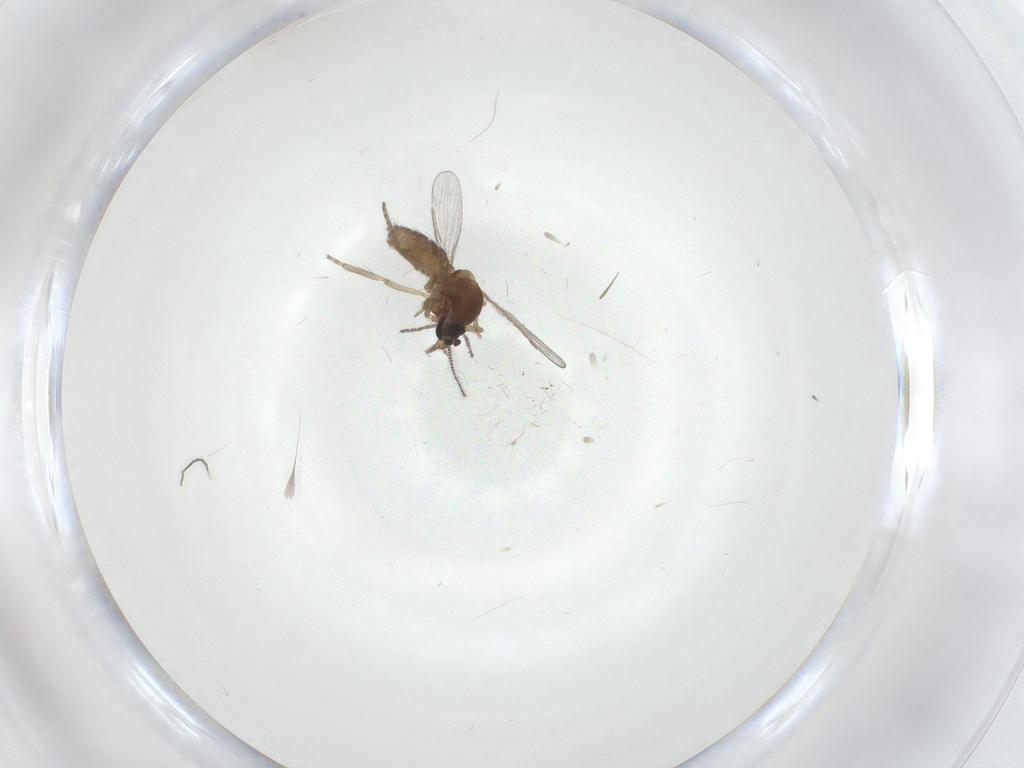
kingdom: Animalia
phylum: Arthropoda
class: Insecta
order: Diptera
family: Ceratopogonidae
